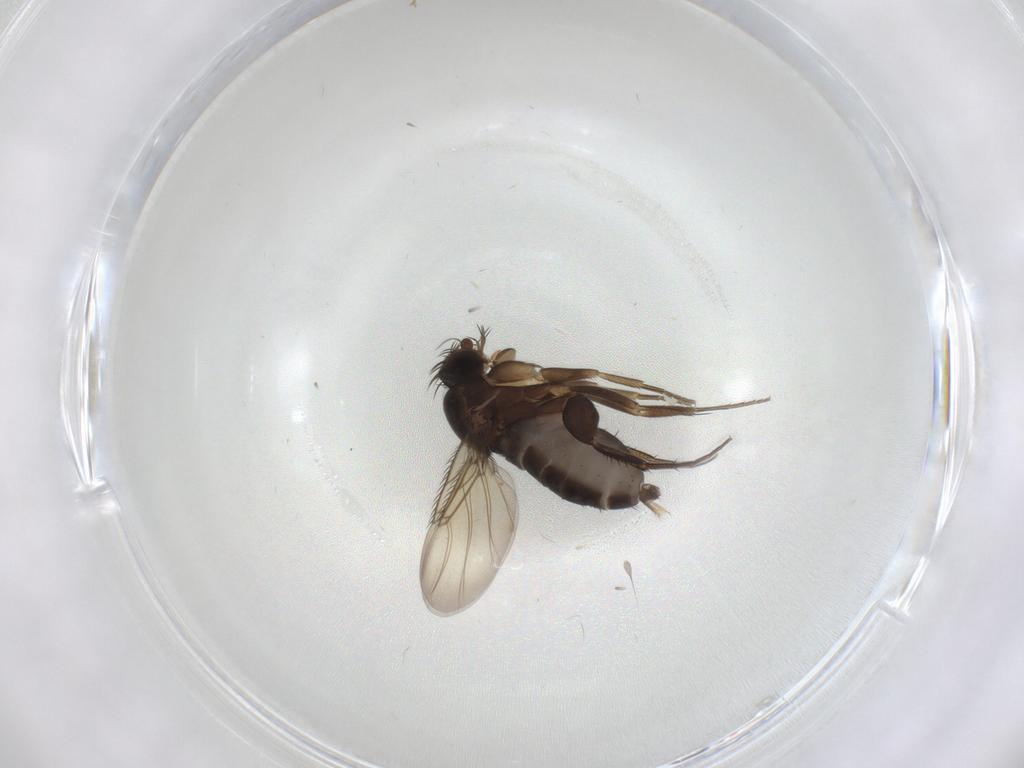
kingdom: Animalia
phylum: Arthropoda
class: Insecta
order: Diptera
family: Phoridae
